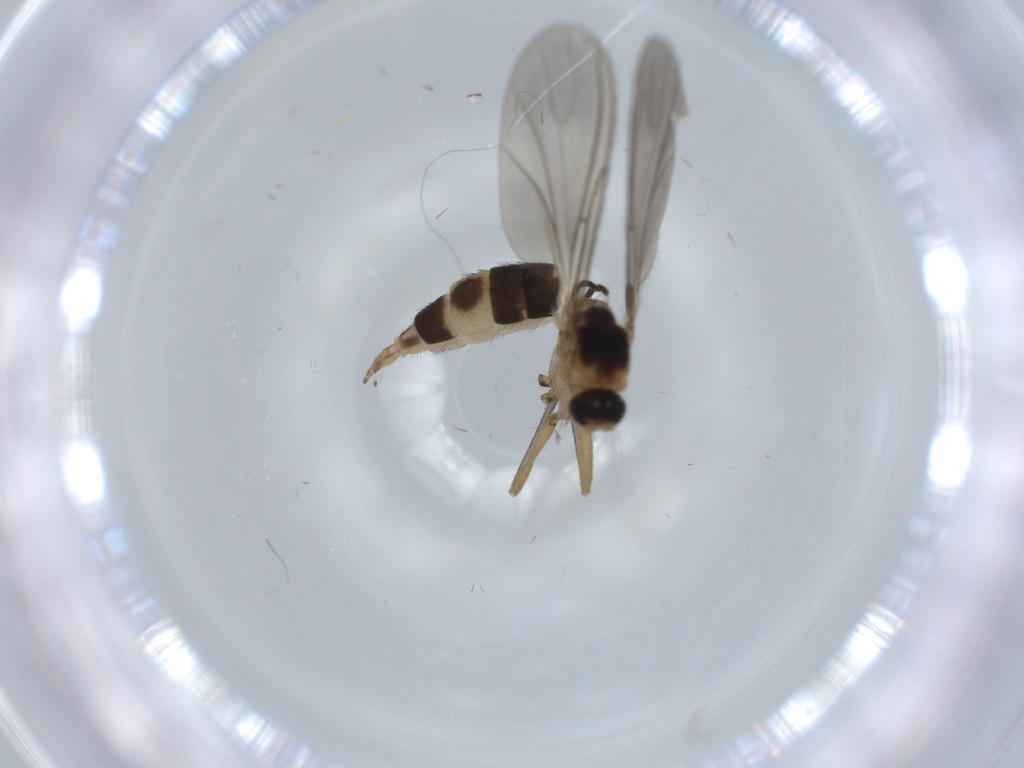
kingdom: Animalia
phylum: Arthropoda
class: Insecta
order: Diptera
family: Sciaridae
